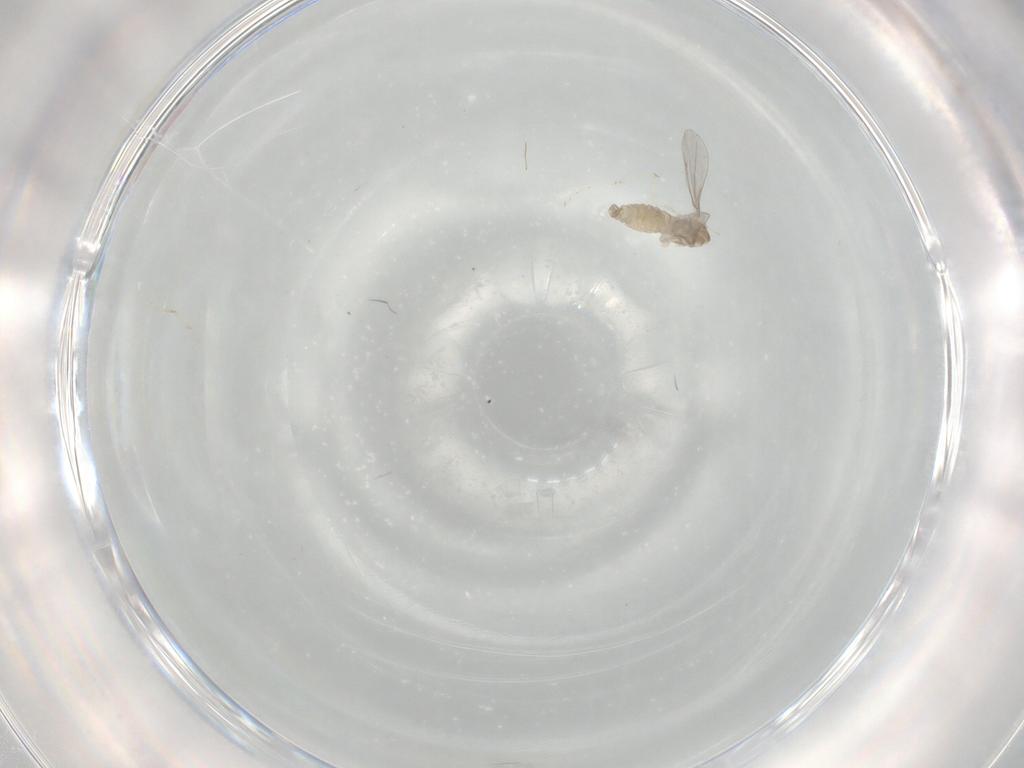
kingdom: Animalia
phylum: Arthropoda
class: Insecta
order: Diptera
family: Cecidomyiidae
